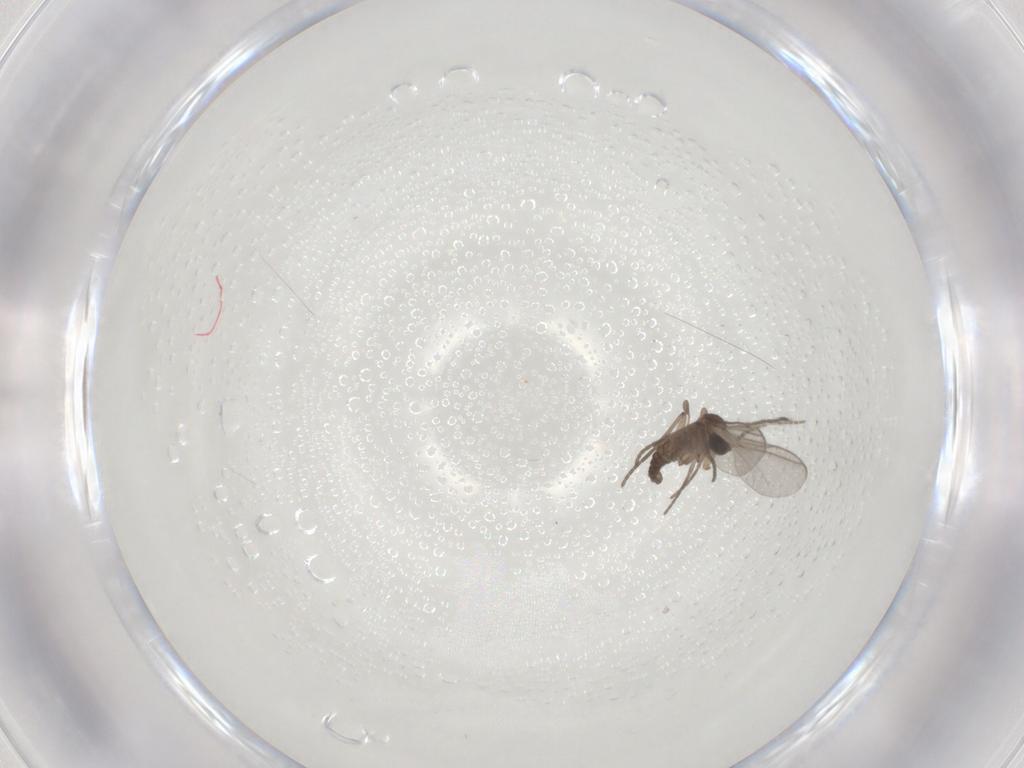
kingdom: Animalia
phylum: Arthropoda
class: Insecta
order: Diptera
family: Chironomidae
